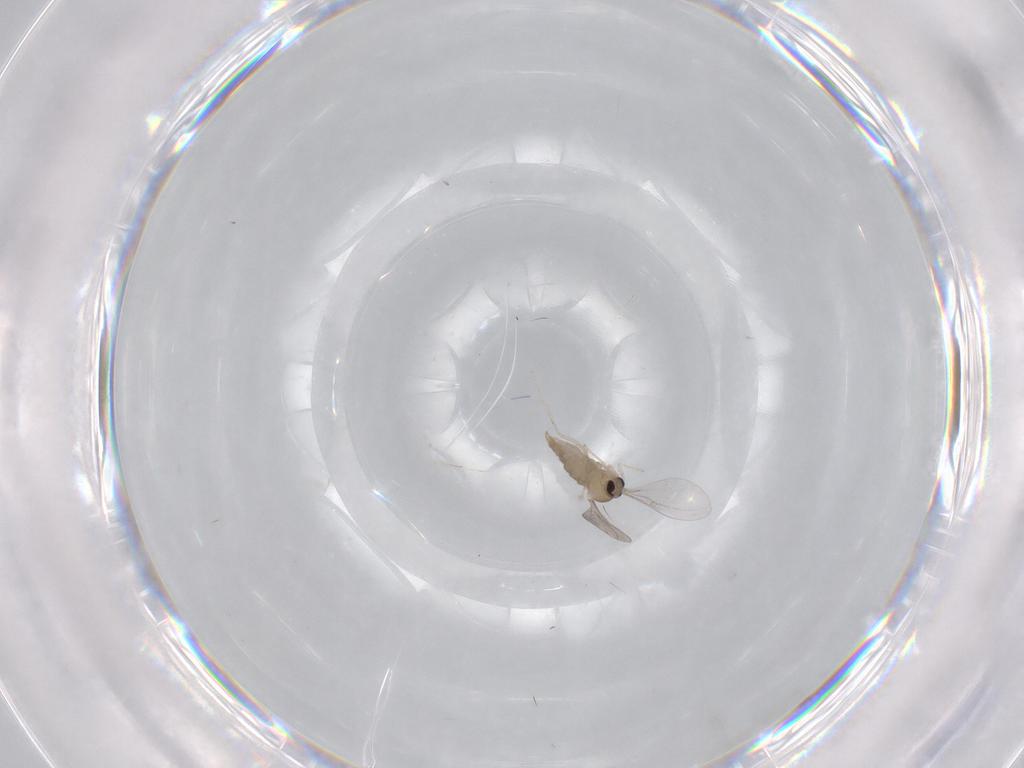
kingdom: Animalia
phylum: Arthropoda
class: Insecta
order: Diptera
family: Cecidomyiidae
